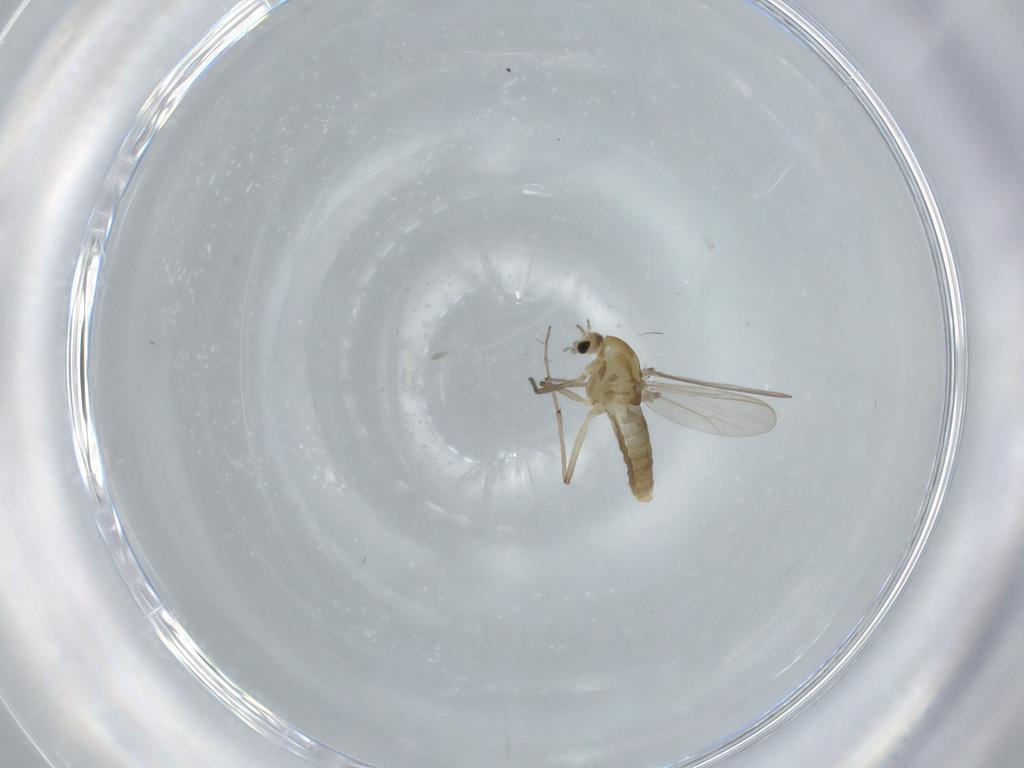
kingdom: Animalia
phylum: Arthropoda
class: Insecta
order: Diptera
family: Chironomidae
